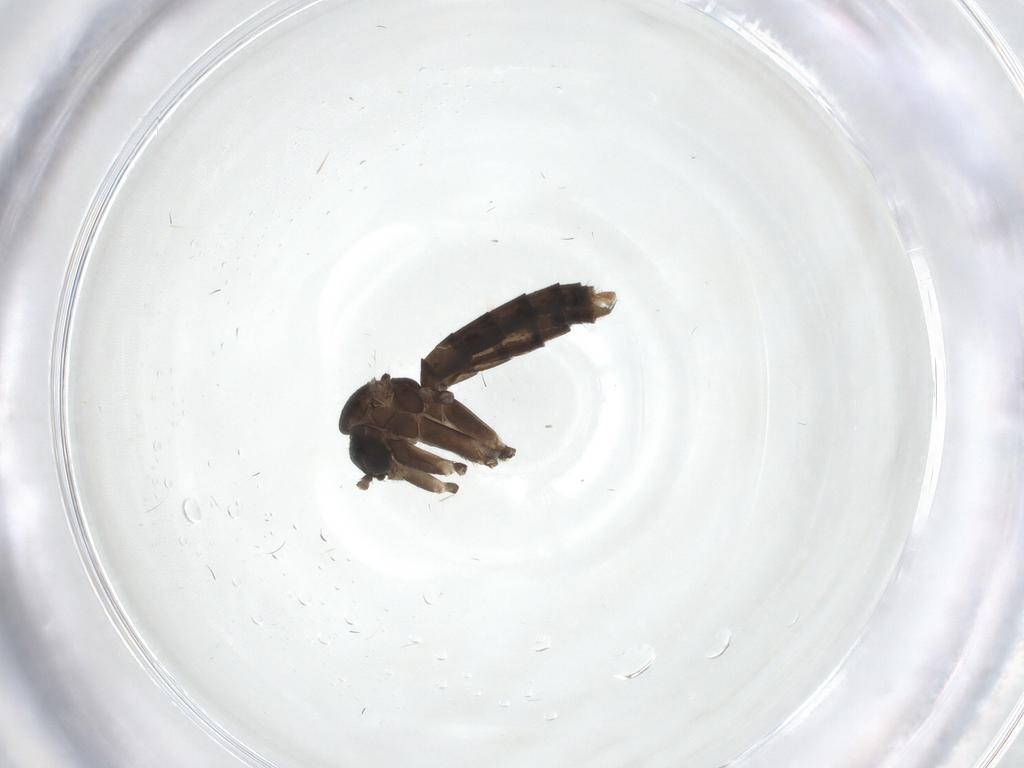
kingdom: Animalia
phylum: Arthropoda
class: Insecta
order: Diptera
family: Mycetophilidae
